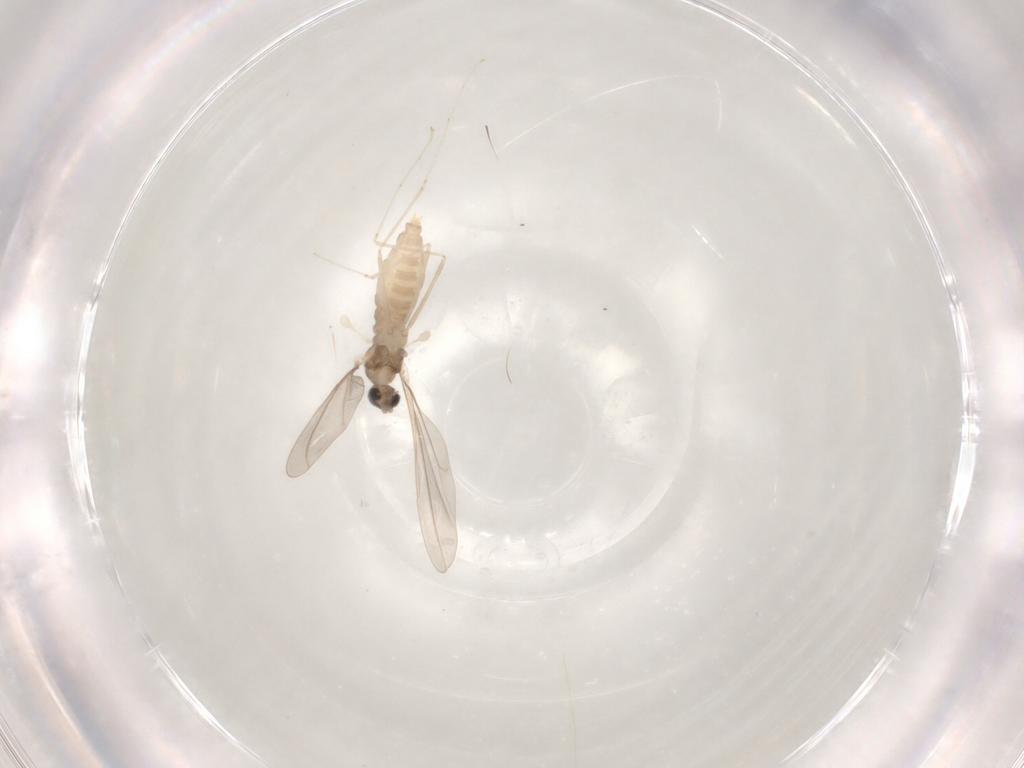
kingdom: Animalia
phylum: Arthropoda
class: Insecta
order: Diptera
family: Cecidomyiidae
